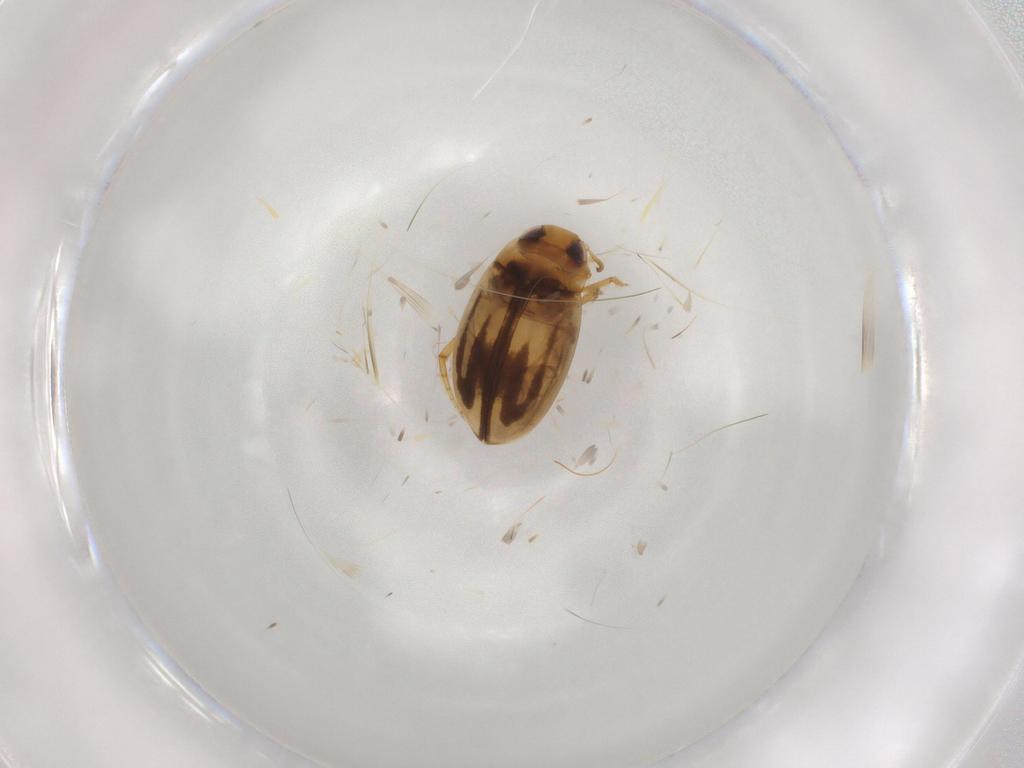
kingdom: Animalia
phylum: Arthropoda
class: Insecta
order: Coleoptera
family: Dytiscidae
